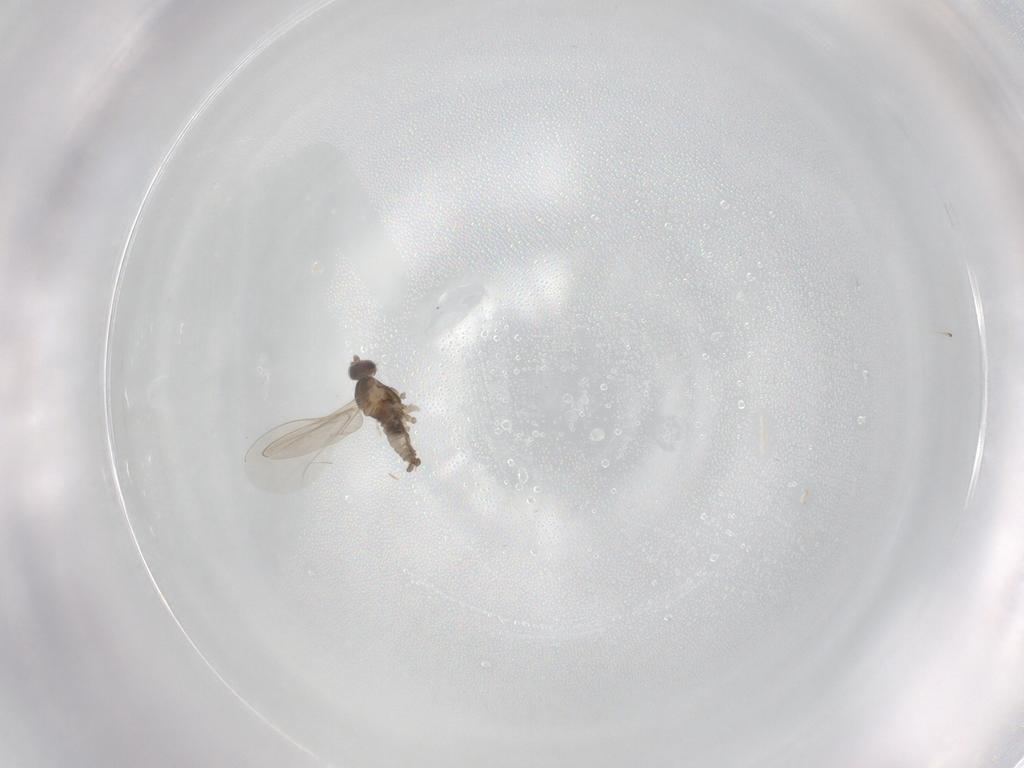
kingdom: Animalia
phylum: Arthropoda
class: Insecta
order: Diptera
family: Cecidomyiidae
